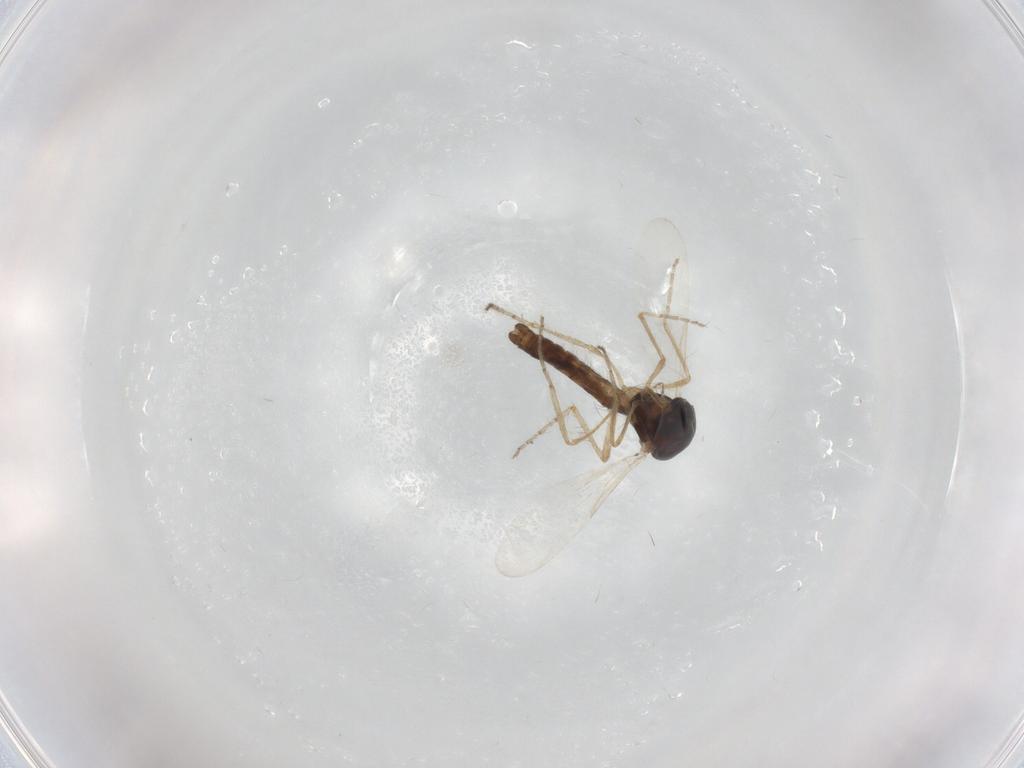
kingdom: Animalia
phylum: Arthropoda
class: Insecta
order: Diptera
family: Ceratopogonidae
